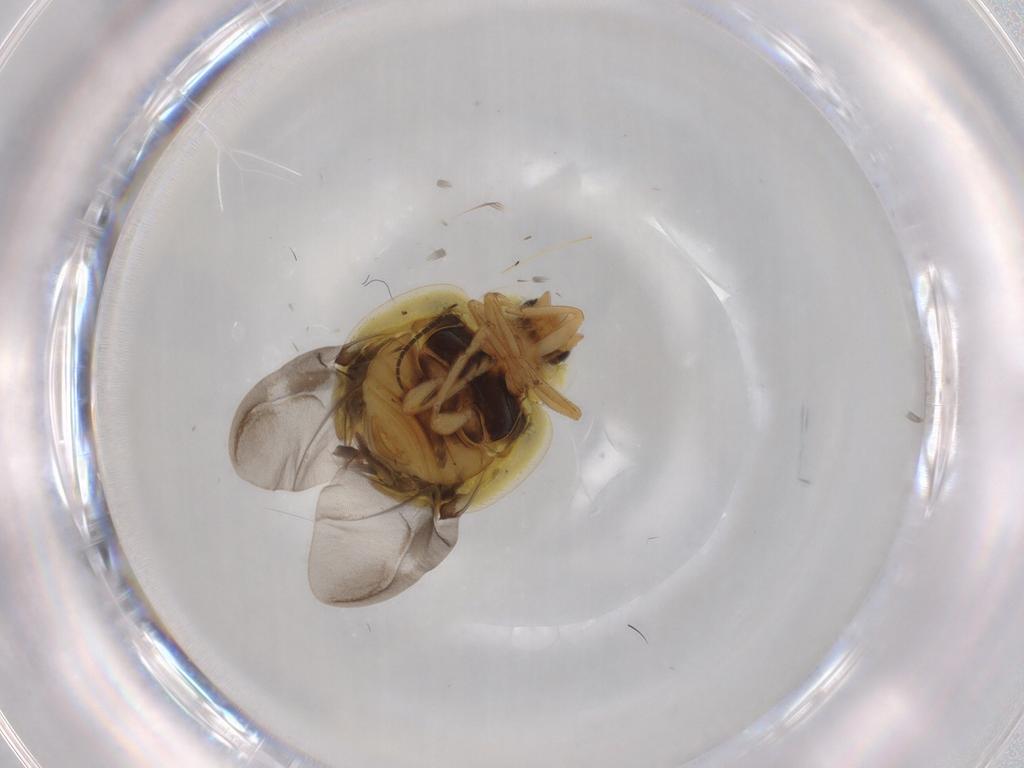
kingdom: Animalia
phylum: Arthropoda
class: Insecta
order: Coleoptera
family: Coccinellidae
